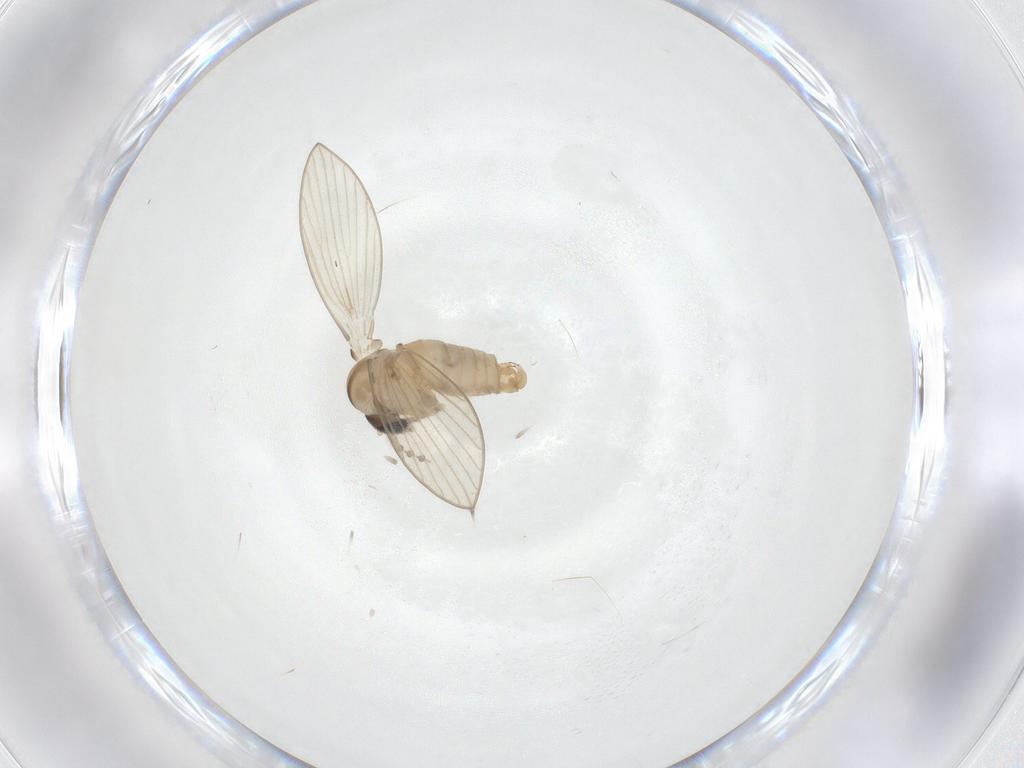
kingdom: Animalia
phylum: Arthropoda
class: Insecta
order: Diptera
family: Psychodidae
